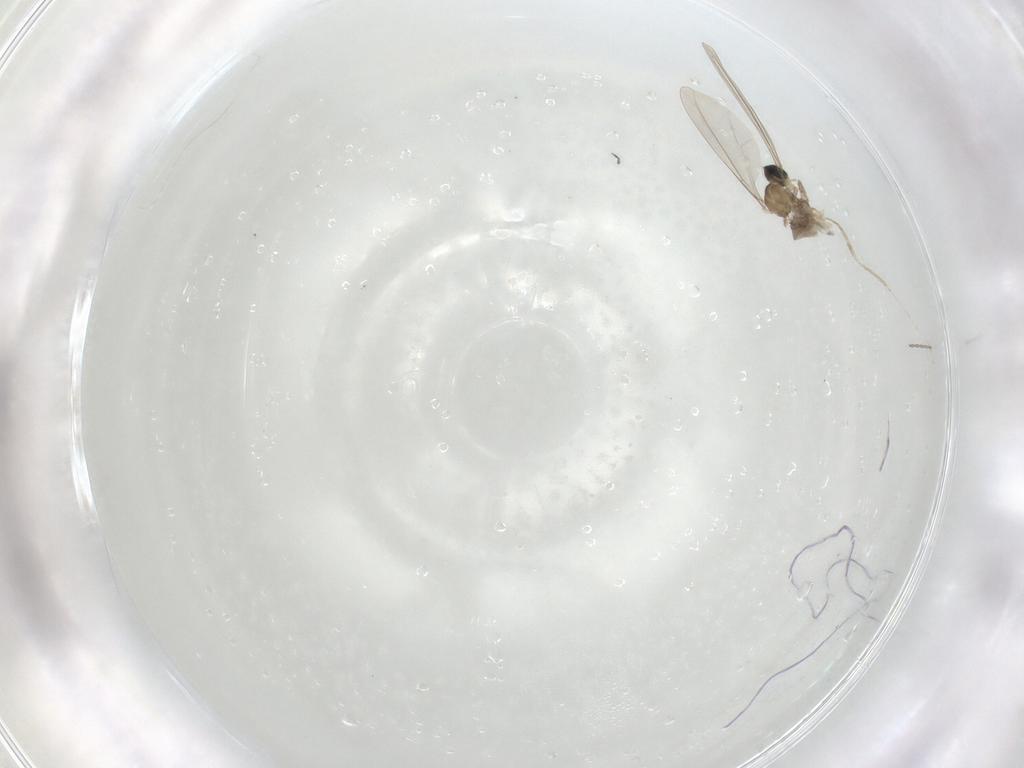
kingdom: Animalia
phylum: Arthropoda
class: Insecta
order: Diptera
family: Cecidomyiidae
